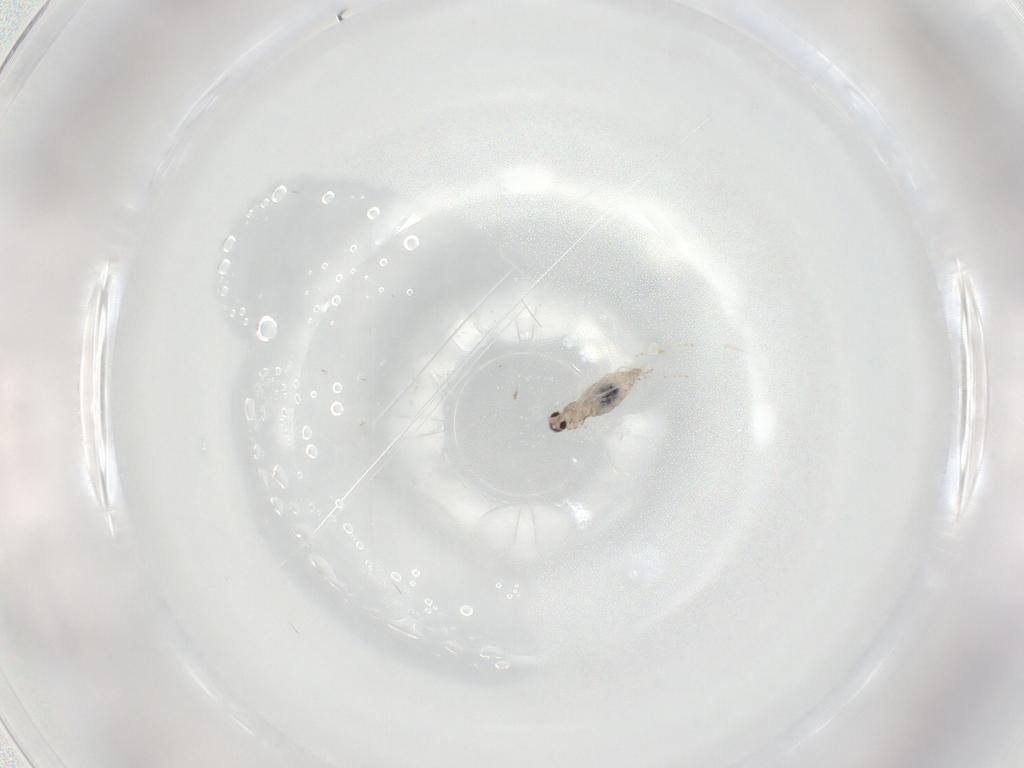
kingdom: Animalia
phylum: Arthropoda
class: Insecta
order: Diptera
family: Cecidomyiidae
